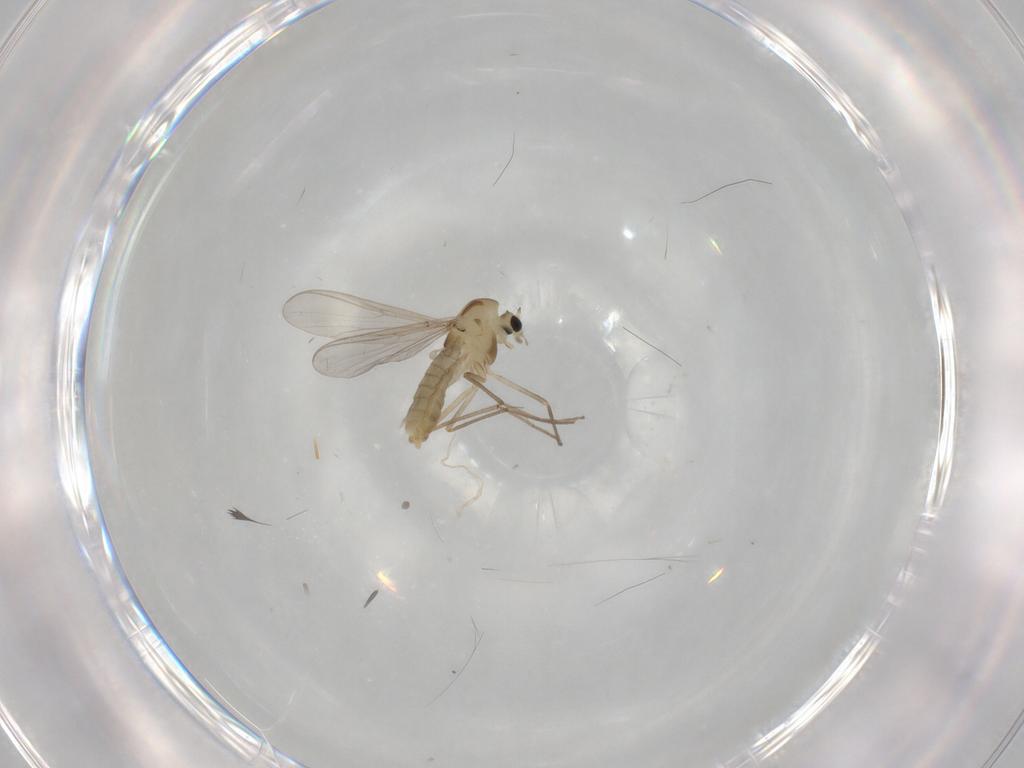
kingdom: Animalia
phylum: Arthropoda
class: Insecta
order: Diptera
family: Chironomidae
